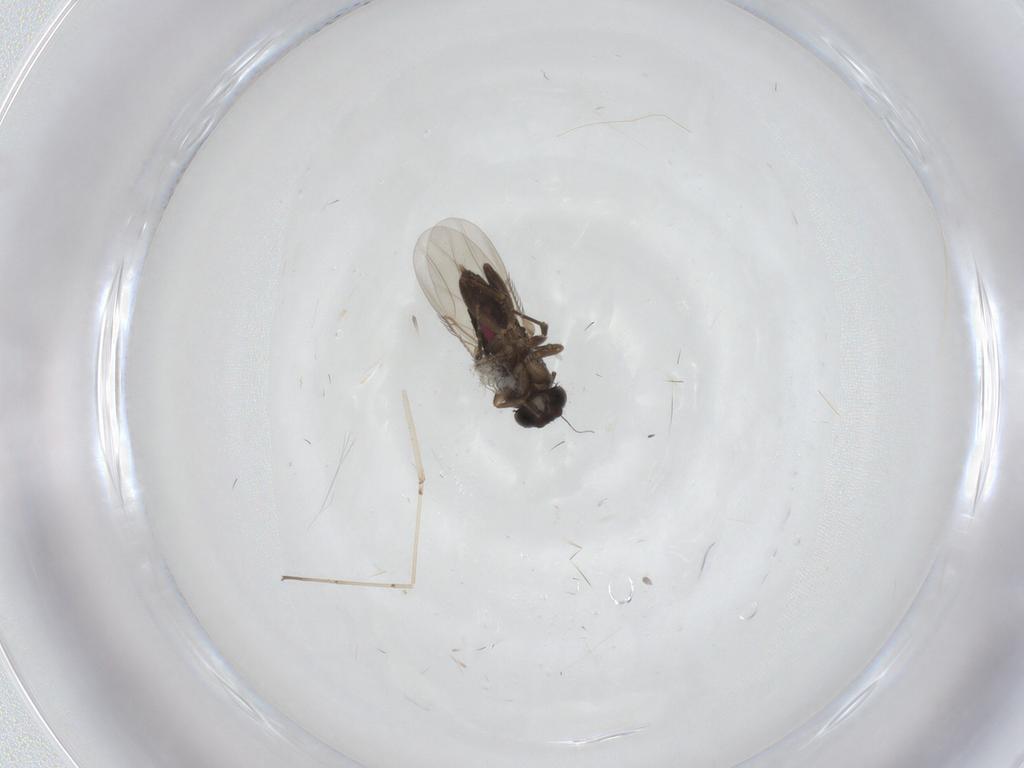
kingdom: Animalia
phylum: Arthropoda
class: Insecta
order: Diptera
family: Phoridae
